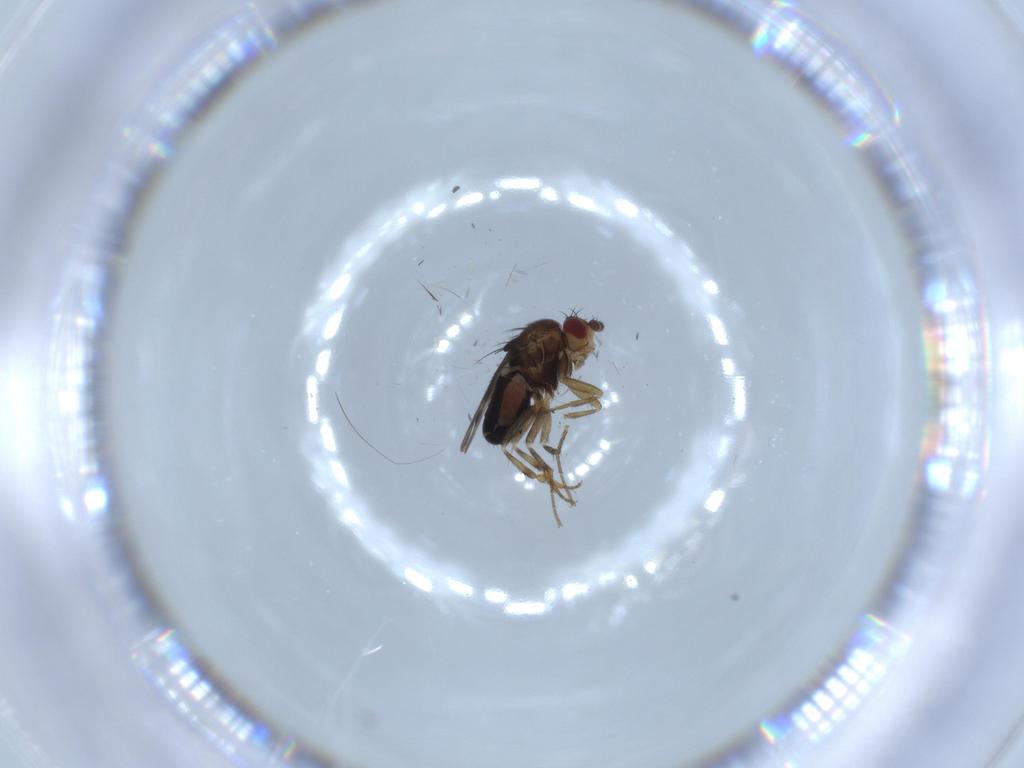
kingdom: Animalia
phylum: Arthropoda
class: Insecta
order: Diptera
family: Sphaeroceridae
